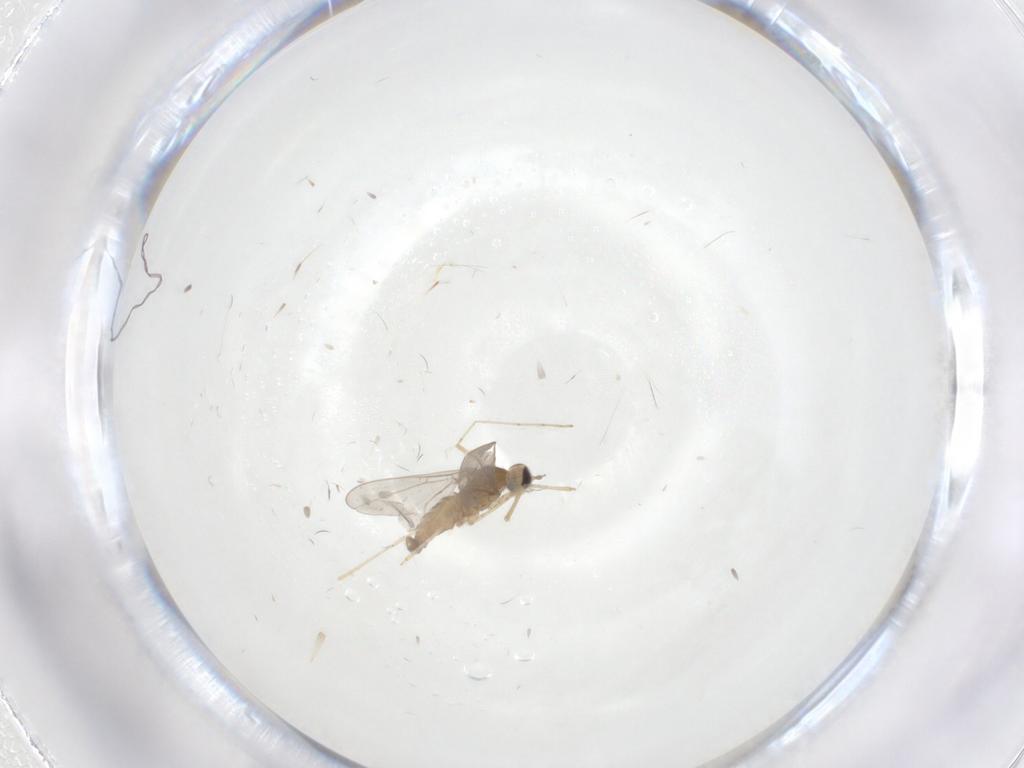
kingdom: Animalia
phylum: Arthropoda
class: Insecta
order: Diptera
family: Cecidomyiidae
